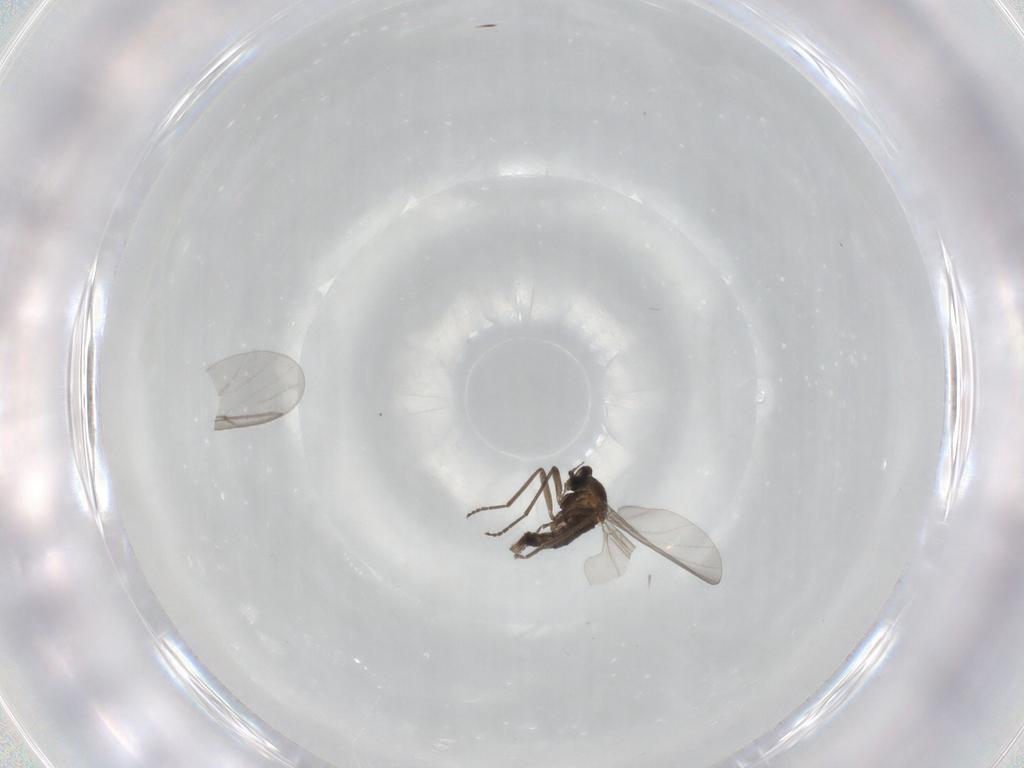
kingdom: Animalia
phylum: Arthropoda
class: Insecta
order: Diptera
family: Cecidomyiidae
